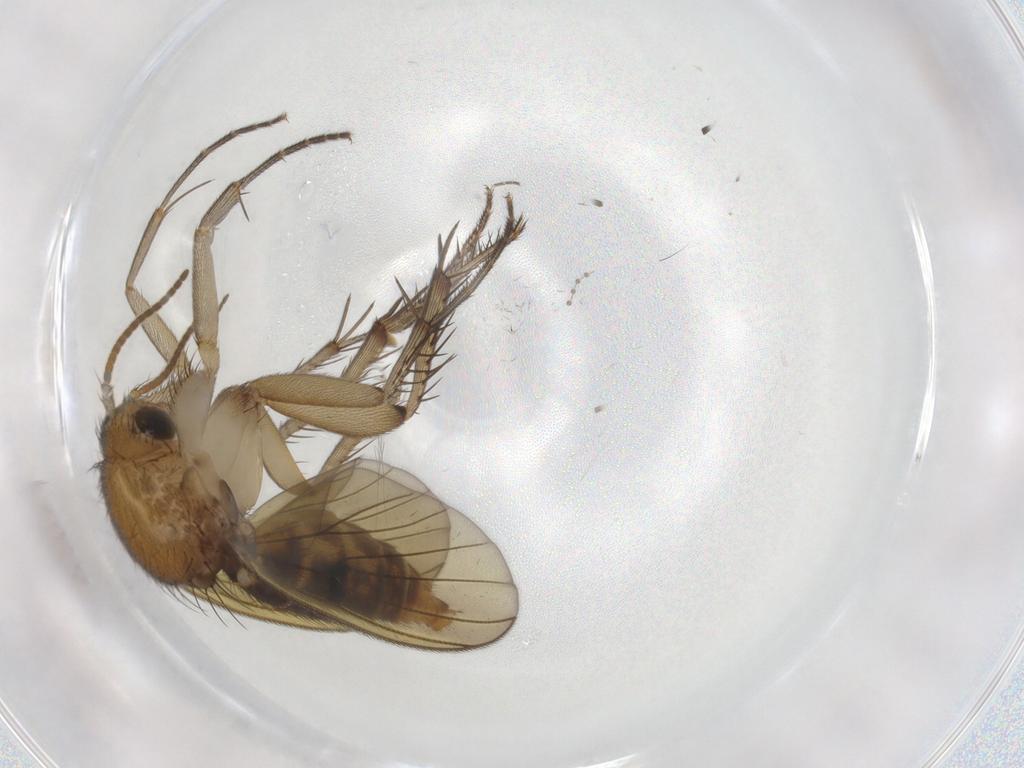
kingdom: Animalia
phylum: Arthropoda
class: Insecta
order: Diptera
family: Mycetophilidae
